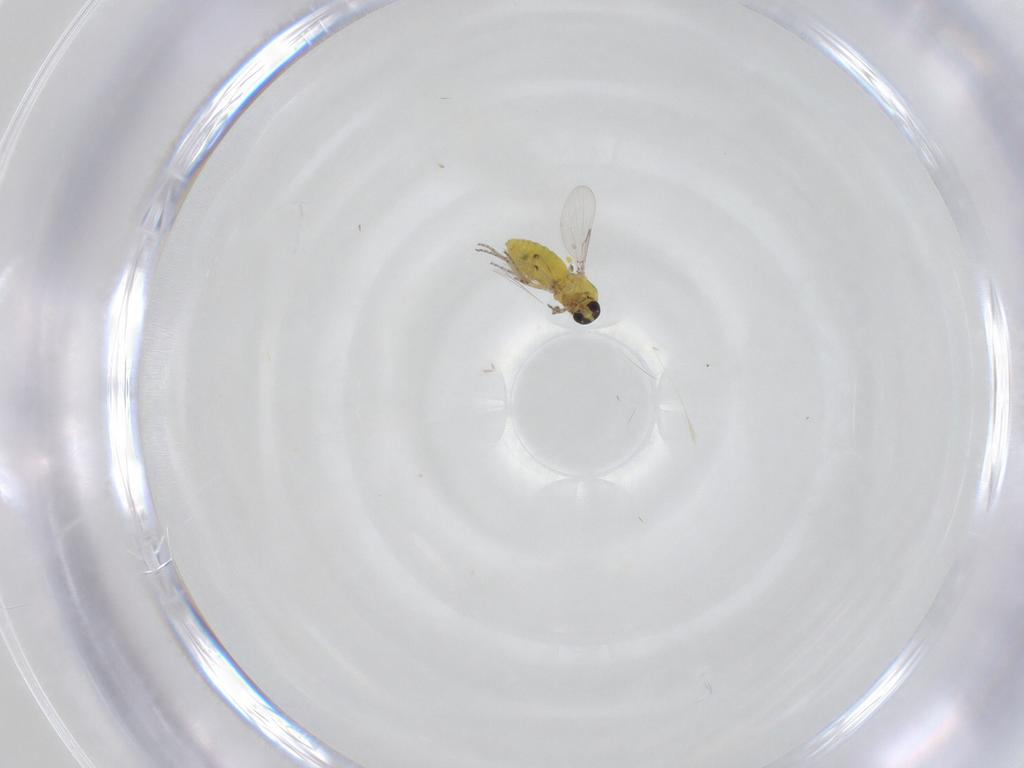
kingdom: Animalia
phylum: Arthropoda
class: Insecta
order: Diptera
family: Ceratopogonidae
